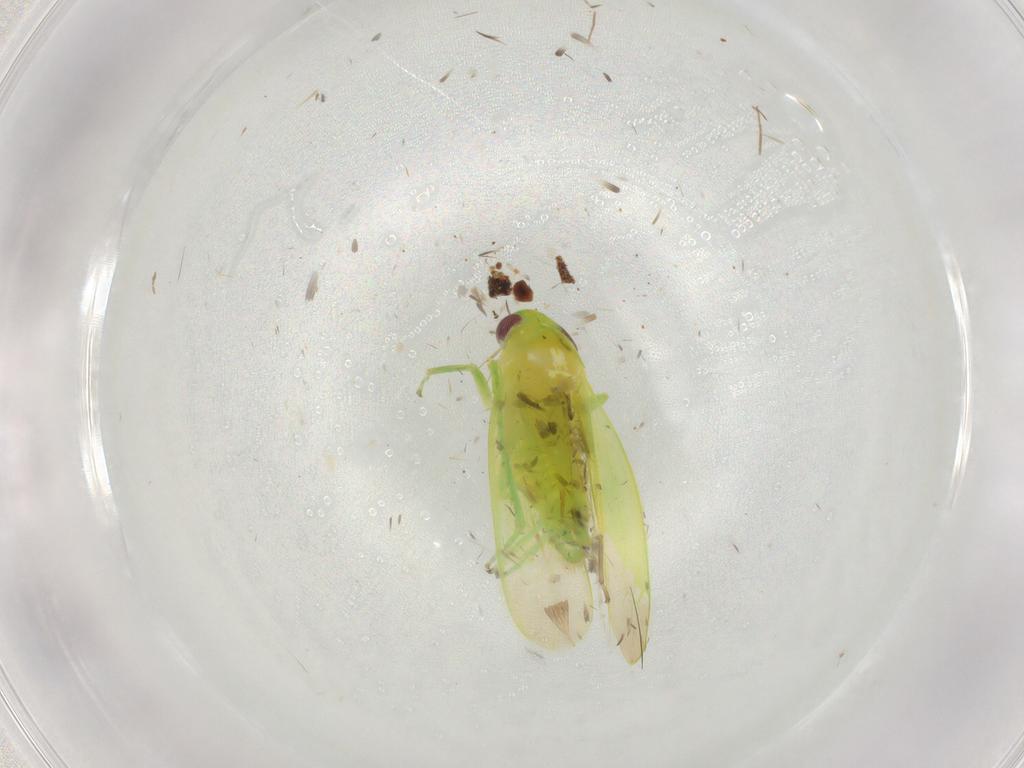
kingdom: Animalia
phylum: Arthropoda
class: Insecta
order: Hemiptera
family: Cicadellidae
